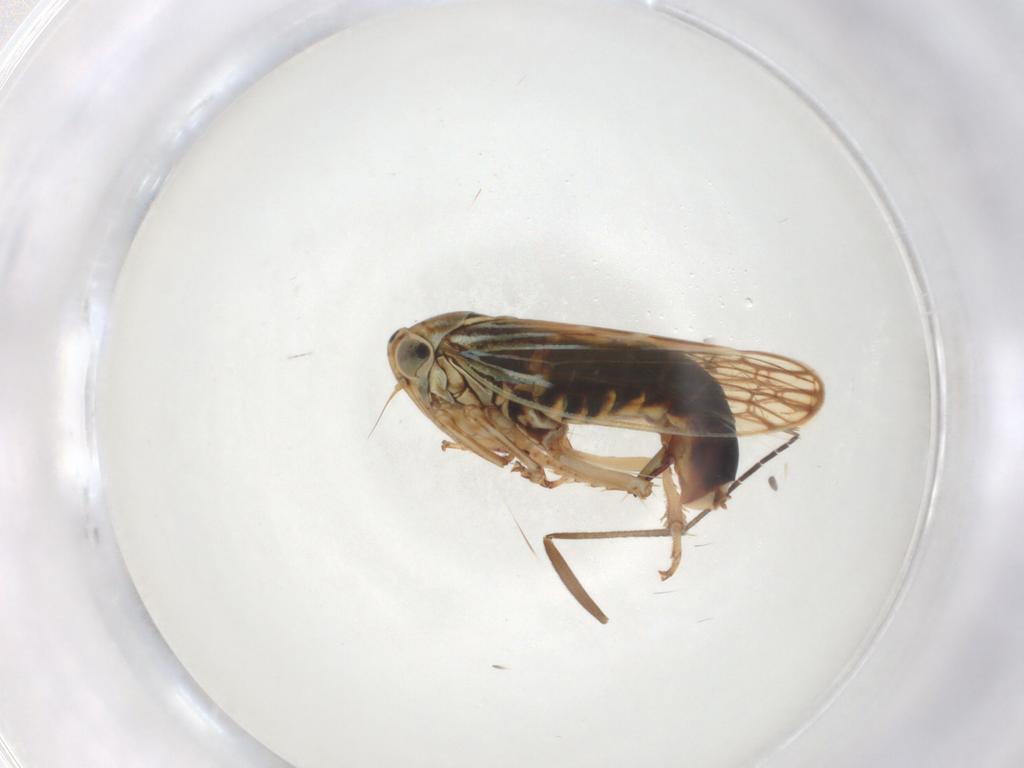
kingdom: Animalia
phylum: Arthropoda
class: Insecta
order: Hemiptera
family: Cicadellidae
